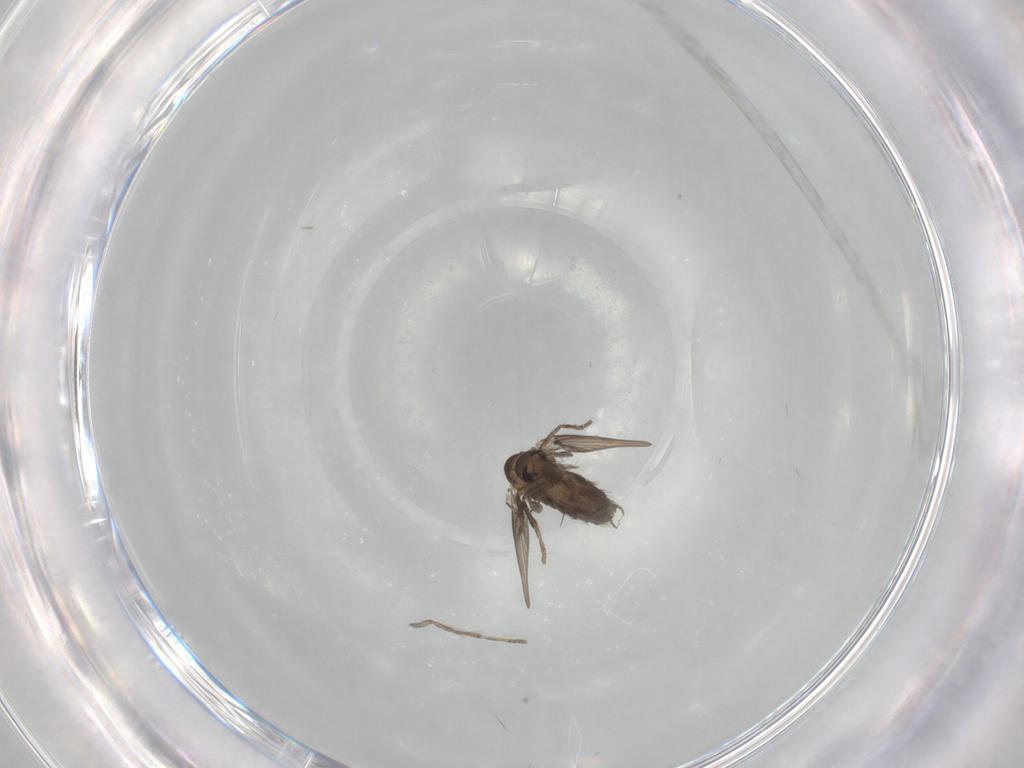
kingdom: Animalia
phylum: Arthropoda
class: Insecta
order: Diptera
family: Psychodidae
